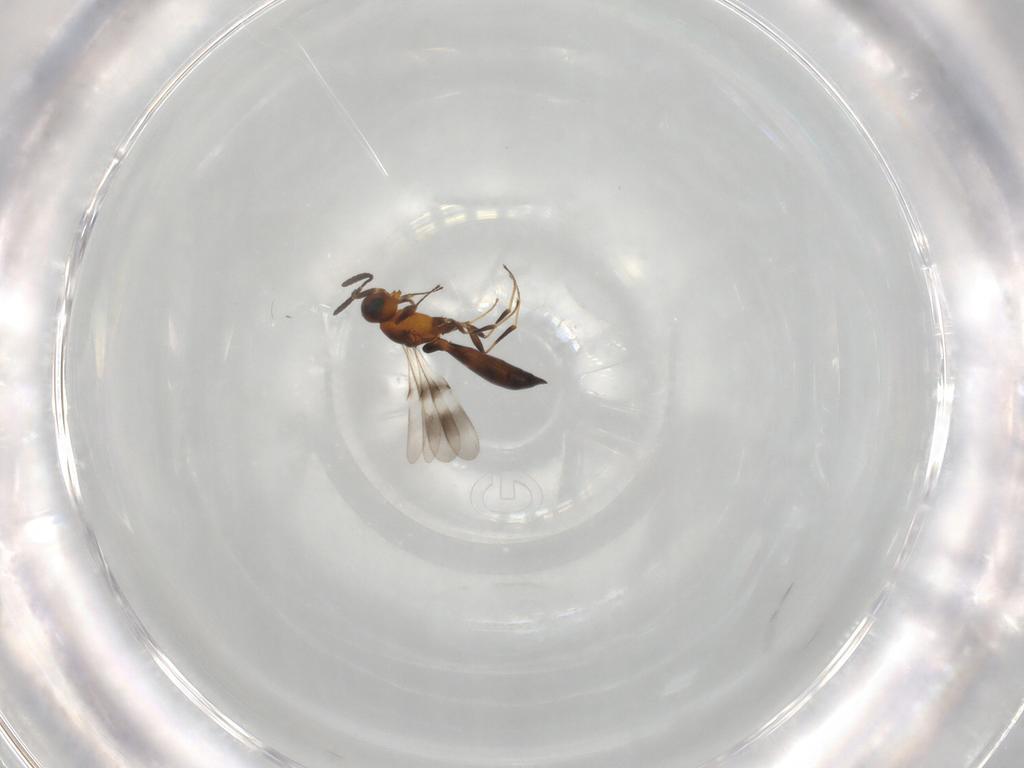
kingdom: Animalia
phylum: Arthropoda
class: Insecta
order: Hymenoptera
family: Scelionidae
